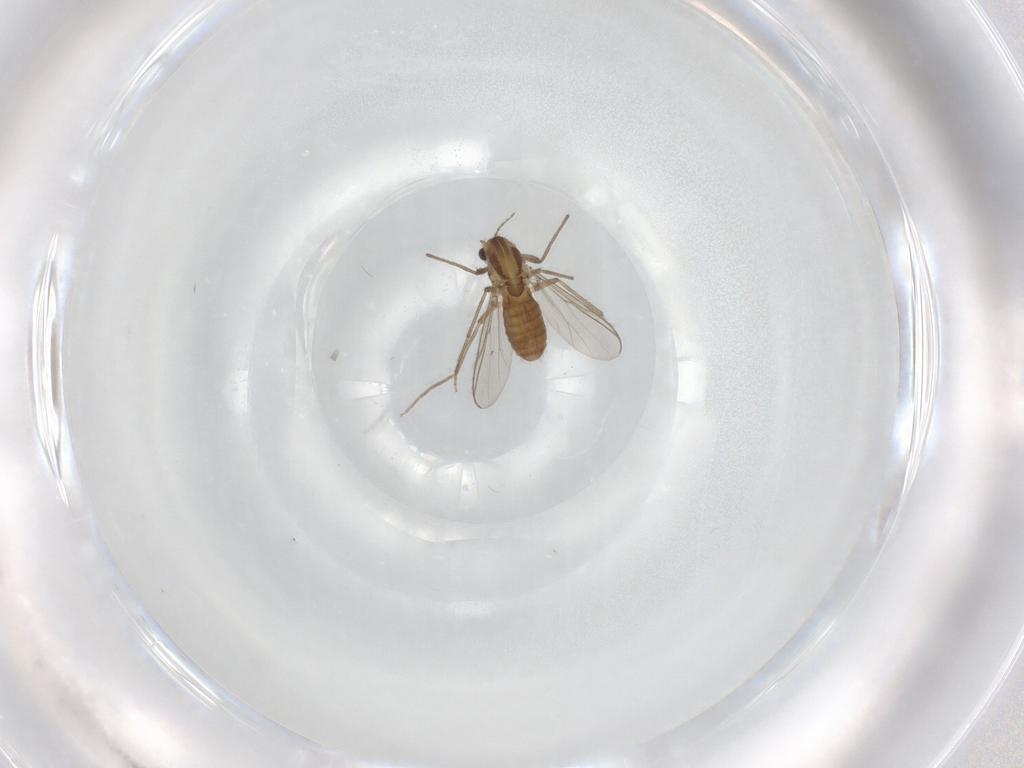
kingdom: Animalia
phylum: Arthropoda
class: Insecta
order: Diptera
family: Chironomidae
